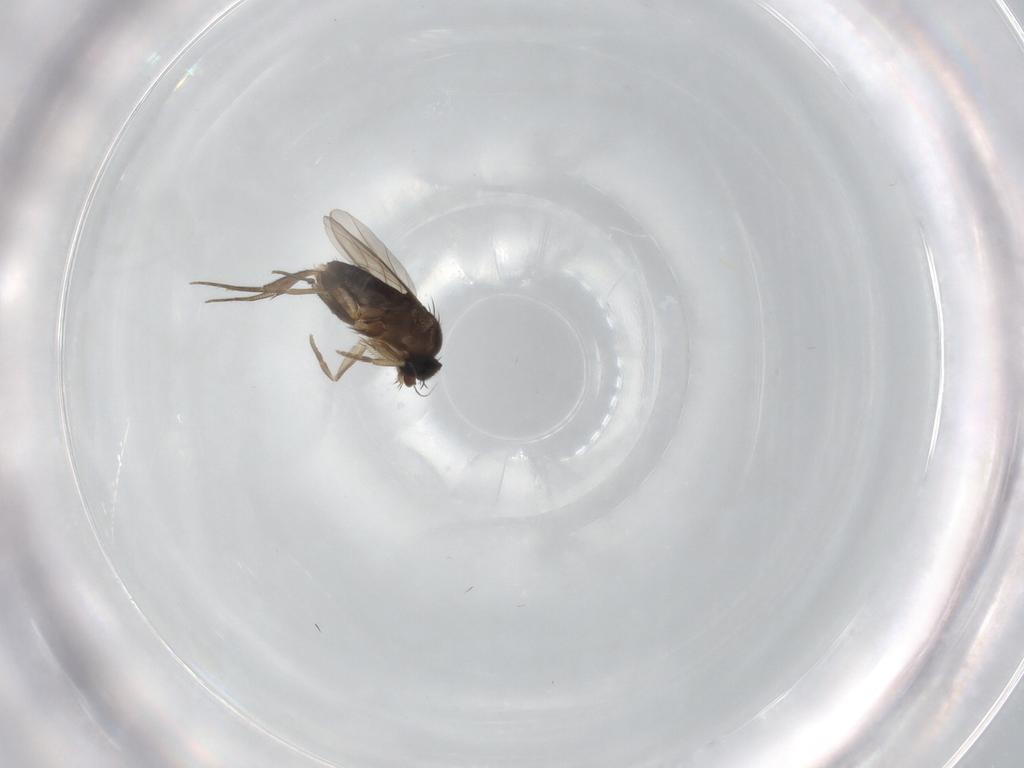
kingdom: Animalia
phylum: Arthropoda
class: Insecta
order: Diptera
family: Phoridae
